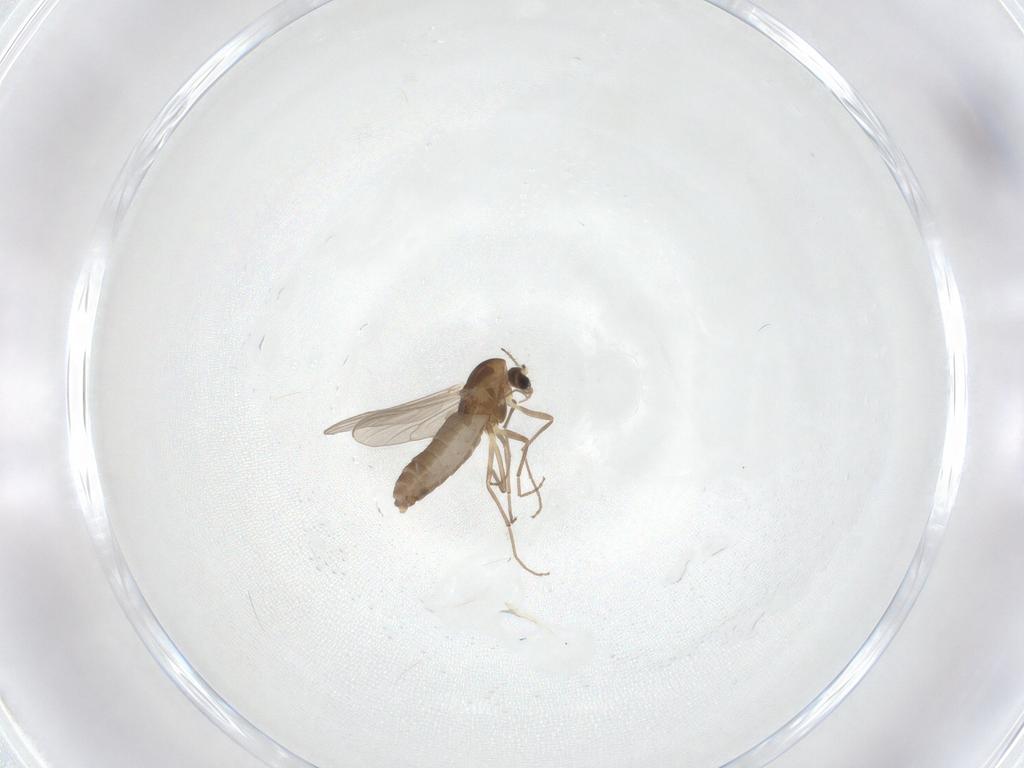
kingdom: Animalia
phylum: Arthropoda
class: Insecta
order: Diptera
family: Chironomidae
